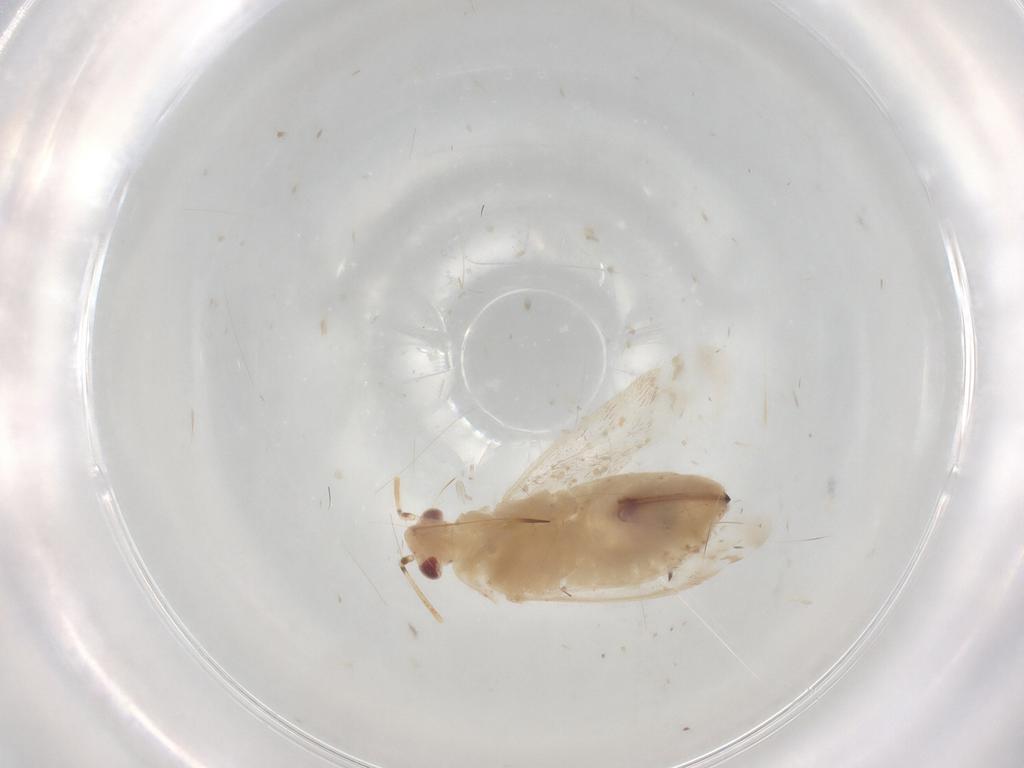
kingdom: Animalia
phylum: Arthropoda
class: Insecta
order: Hemiptera
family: Miridae
